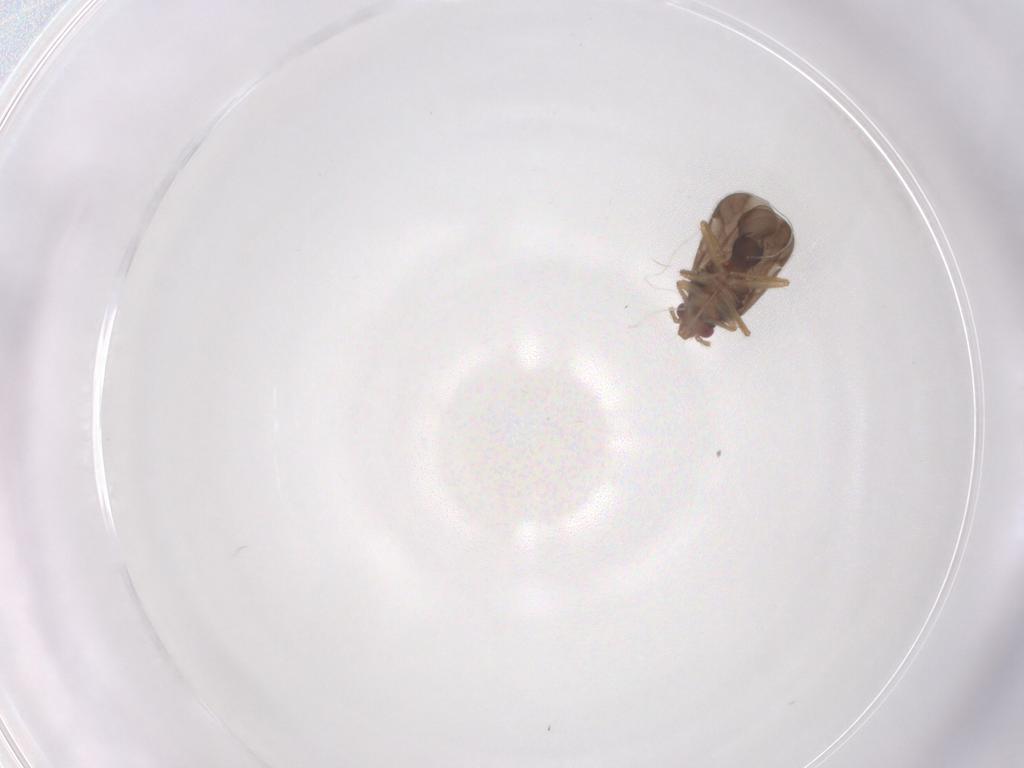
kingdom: Animalia
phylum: Arthropoda
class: Insecta
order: Hemiptera
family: Ceratocombidae
